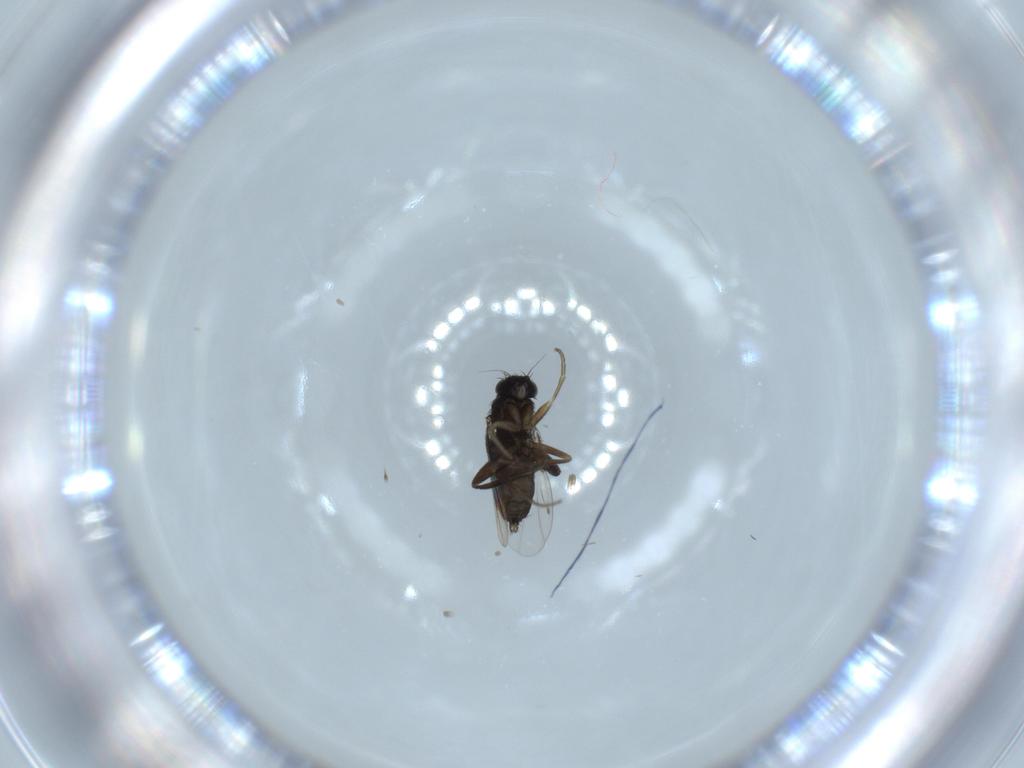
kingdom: Animalia
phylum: Arthropoda
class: Insecta
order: Diptera
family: Phoridae
